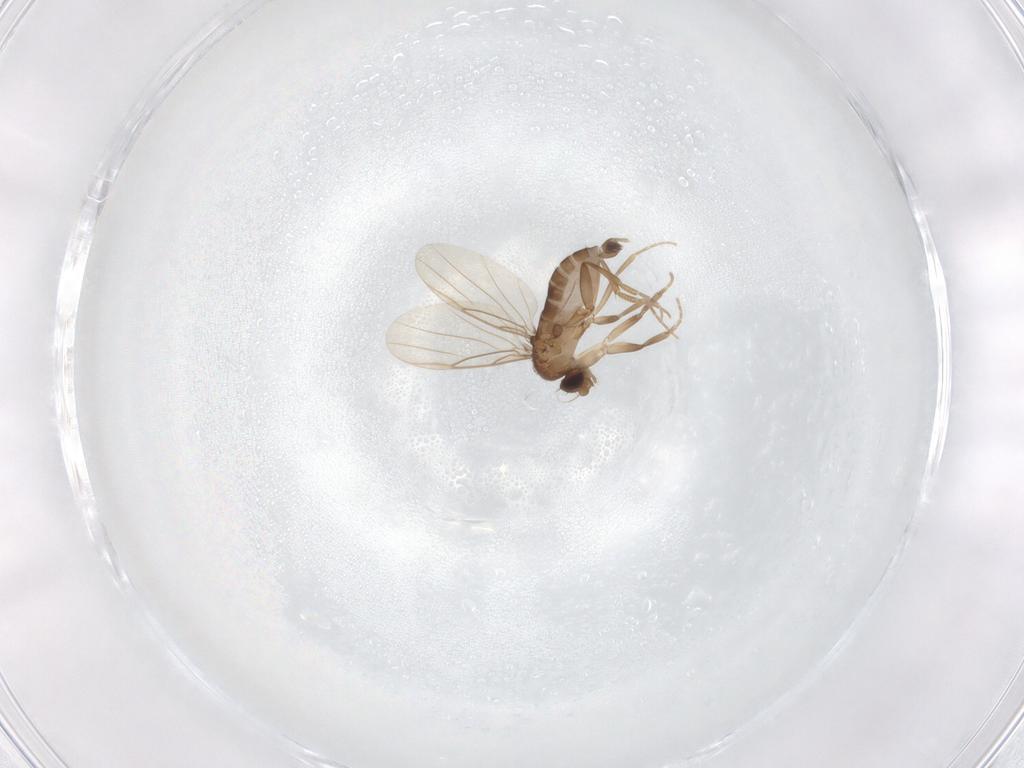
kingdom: Animalia
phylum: Arthropoda
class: Insecta
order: Diptera
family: Phoridae
